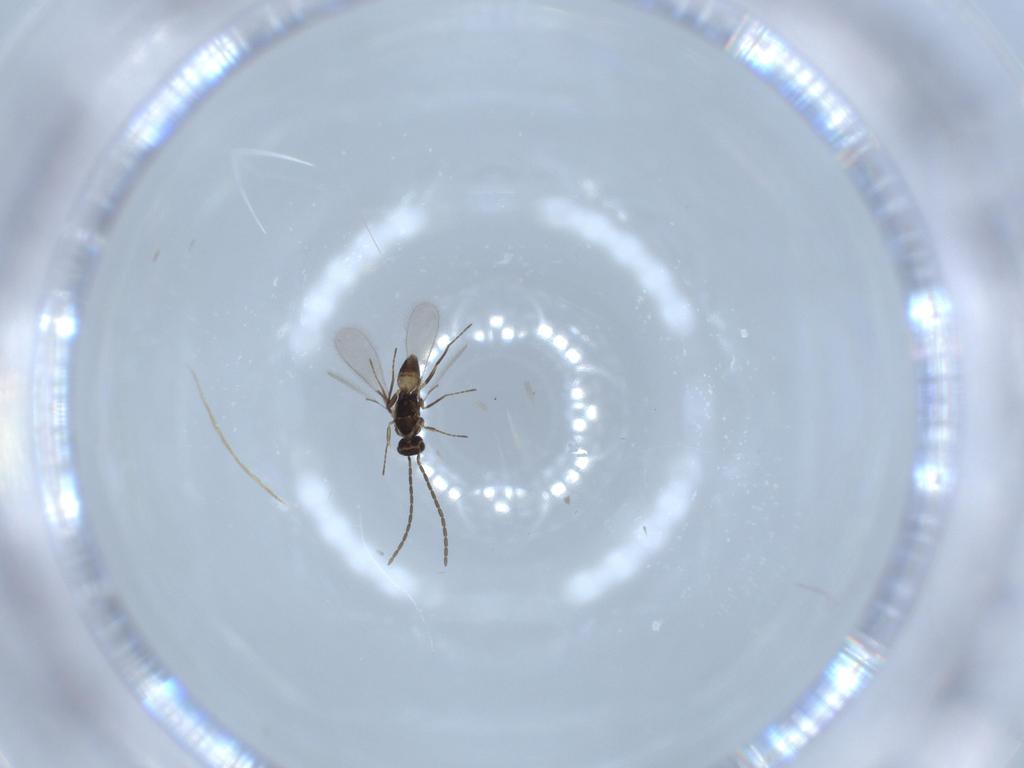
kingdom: Animalia
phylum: Arthropoda
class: Insecta
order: Hymenoptera
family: Mymaridae
